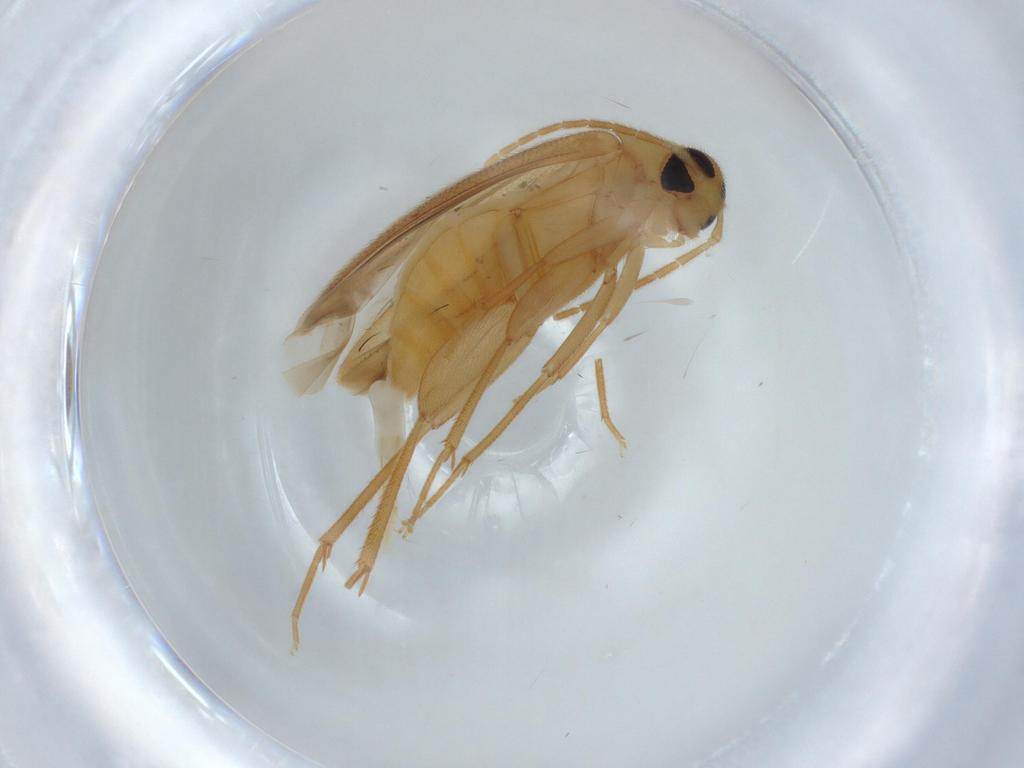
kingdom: Animalia
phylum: Arthropoda
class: Insecta
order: Coleoptera
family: Scraptiidae
